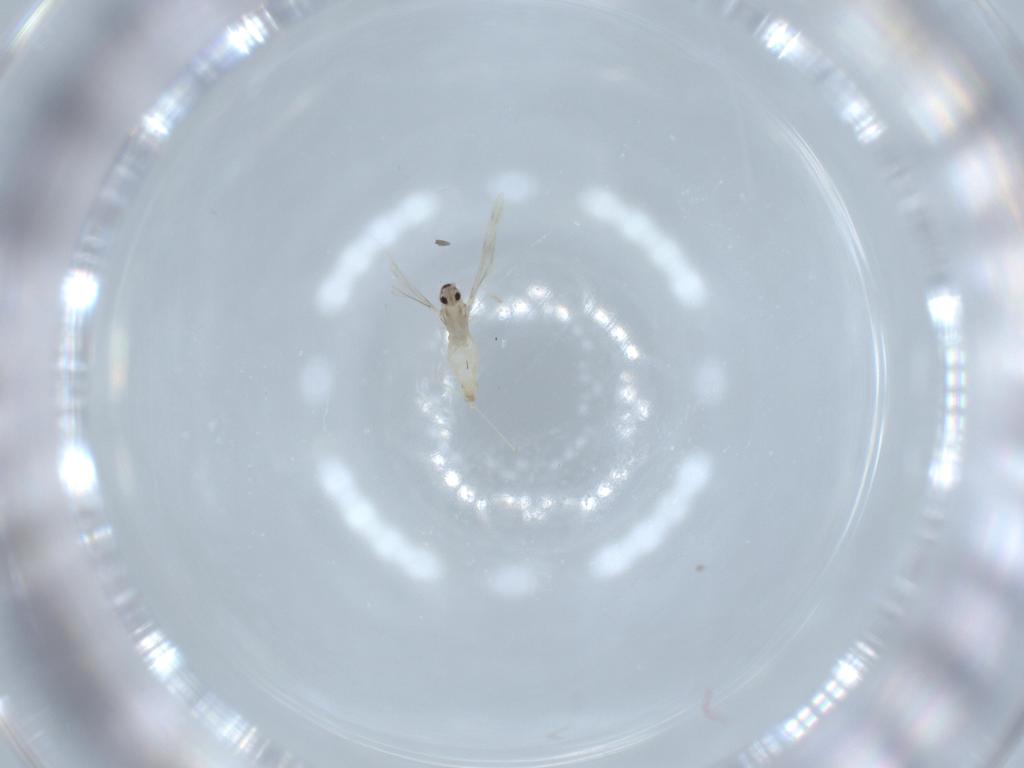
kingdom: Animalia
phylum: Arthropoda
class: Insecta
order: Diptera
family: Cecidomyiidae
